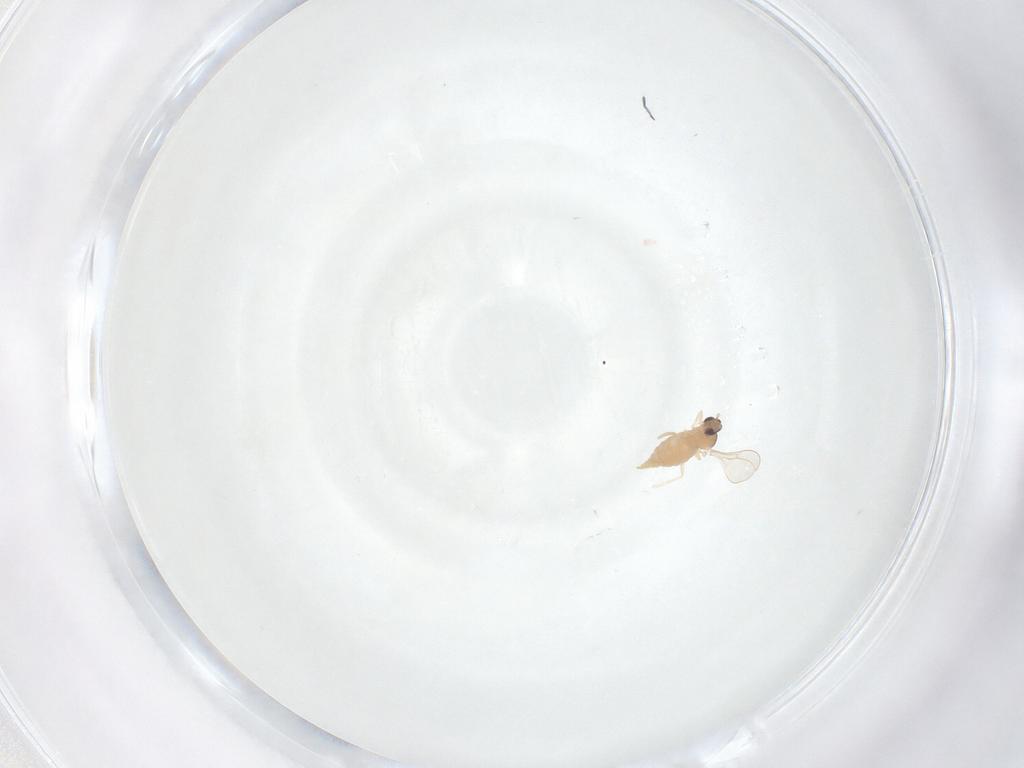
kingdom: Animalia
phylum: Arthropoda
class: Insecta
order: Diptera
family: Cecidomyiidae
